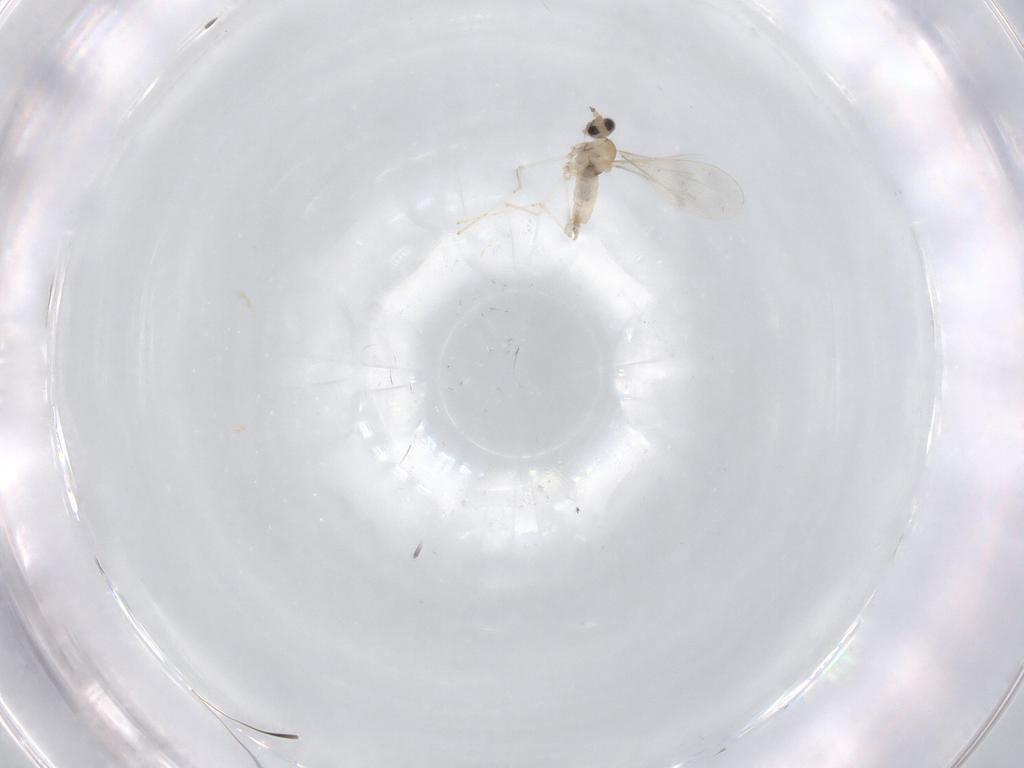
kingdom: Animalia
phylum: Arthropoda
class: Insecta
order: Diptera
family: Cecidomyiidae
